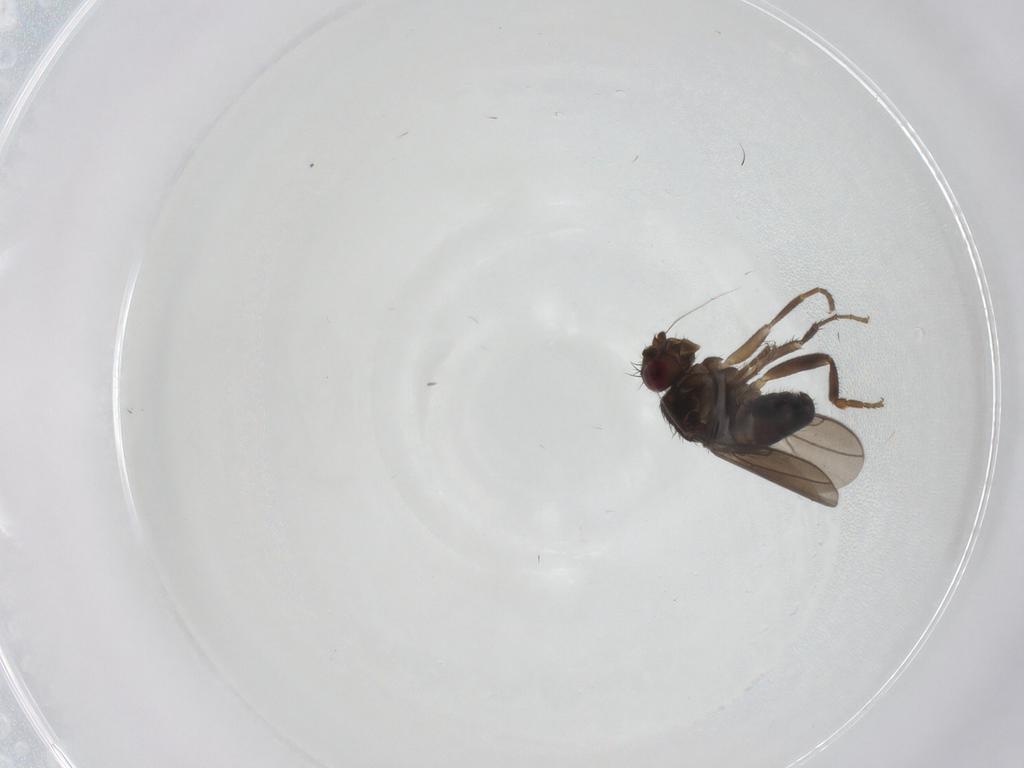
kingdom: Animalia
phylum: Arthropoda
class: Insecta
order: Diptera
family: Sphaeroceridae
